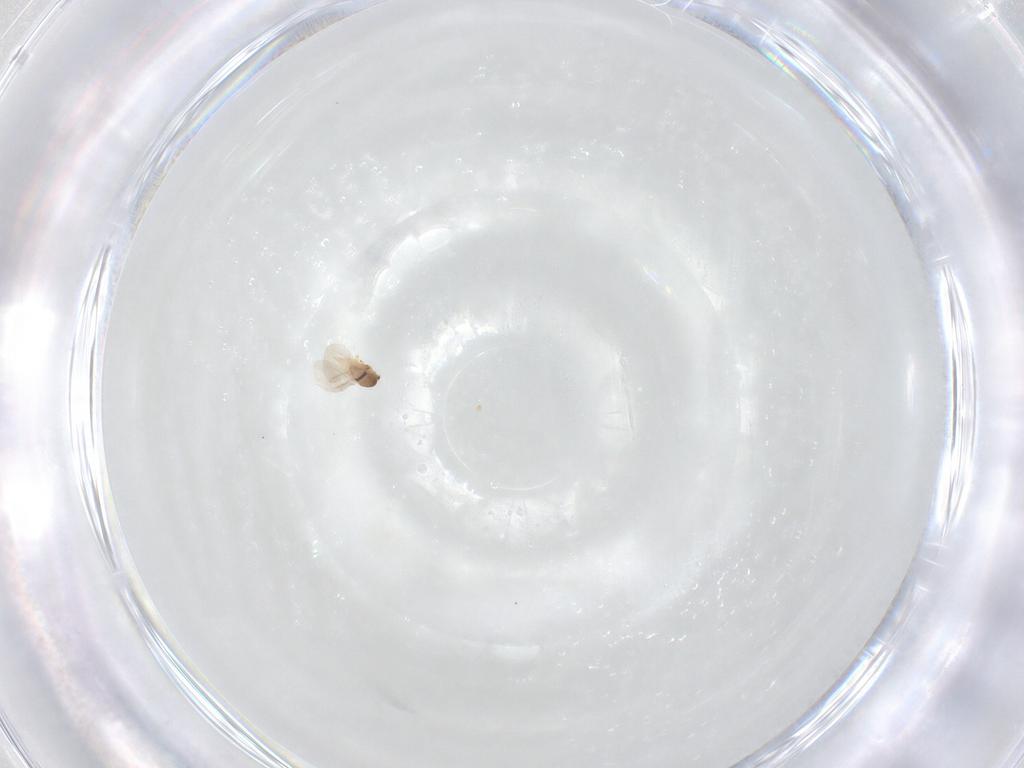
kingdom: Animalia
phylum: Arthropoda
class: Insecta
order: Hemiptera
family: Diaspididae
